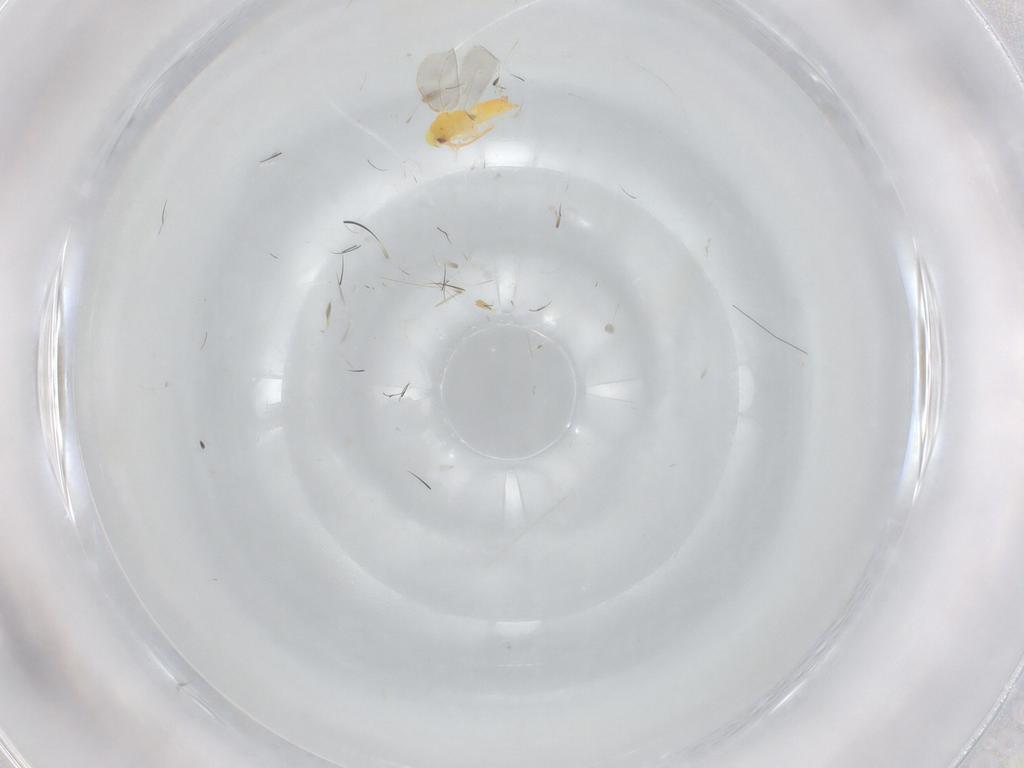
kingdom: Animalia
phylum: Arthropoda
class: Insecta
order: Hemiptera
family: Aleyrodidae
